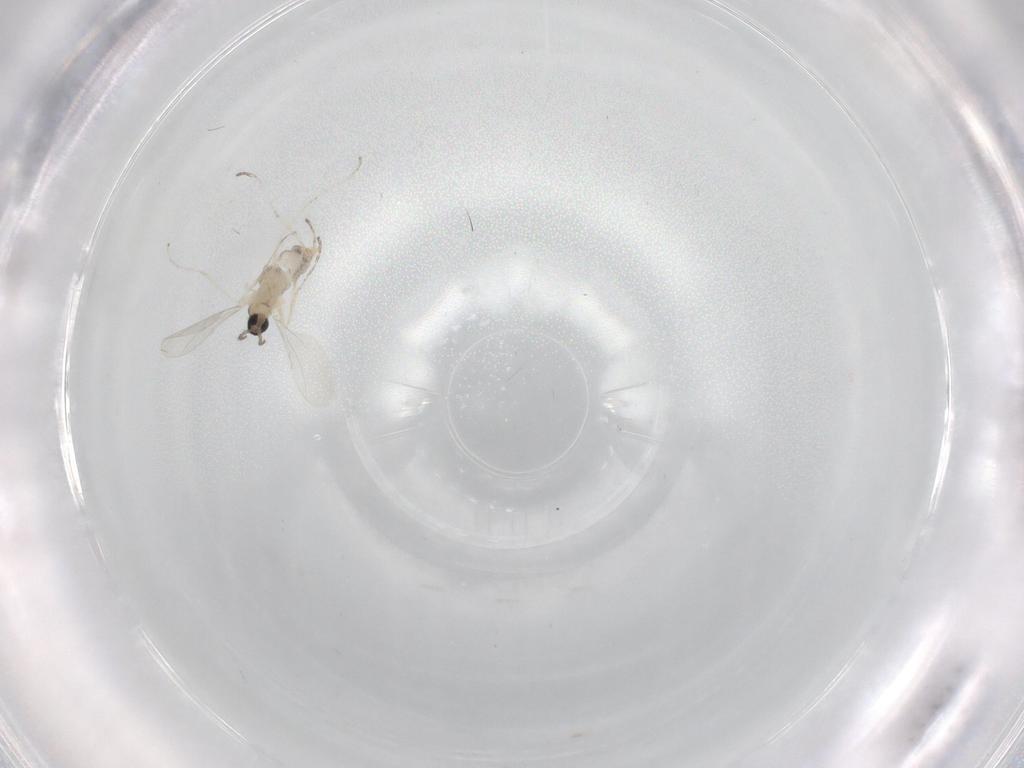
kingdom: Animalia
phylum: Arthropoda
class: Insecta
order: Diptera
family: Cecidomyiidae
